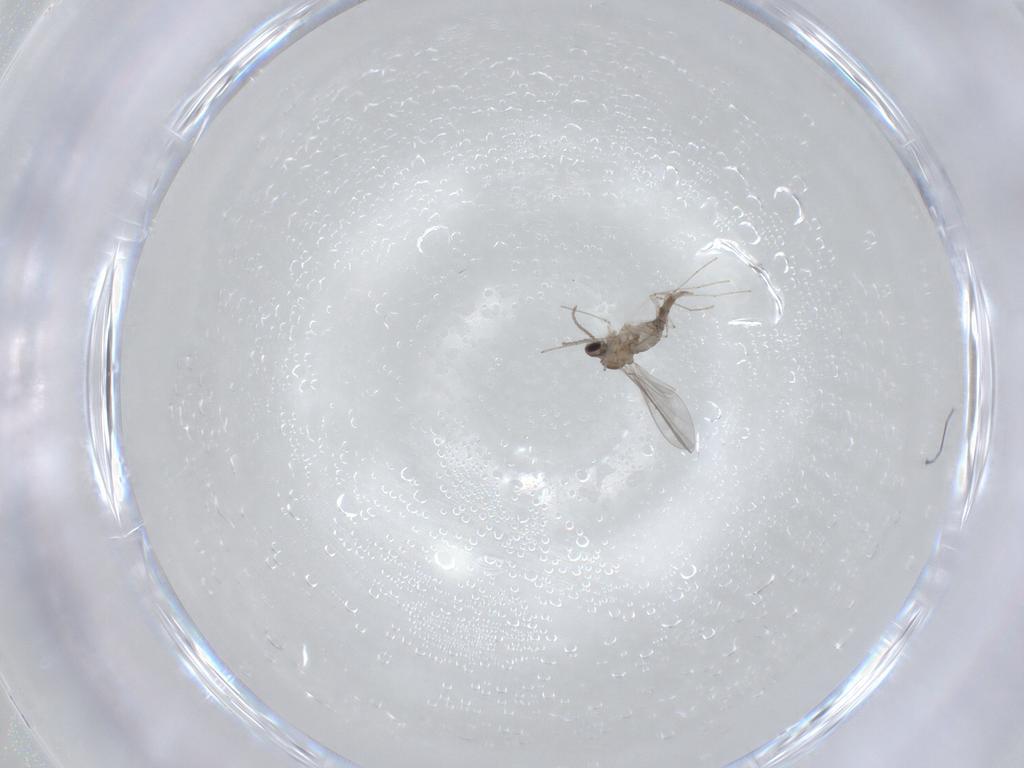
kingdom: Animalia
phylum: Arthropoda
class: Insecta
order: Diptera
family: Cecidomyiidae
